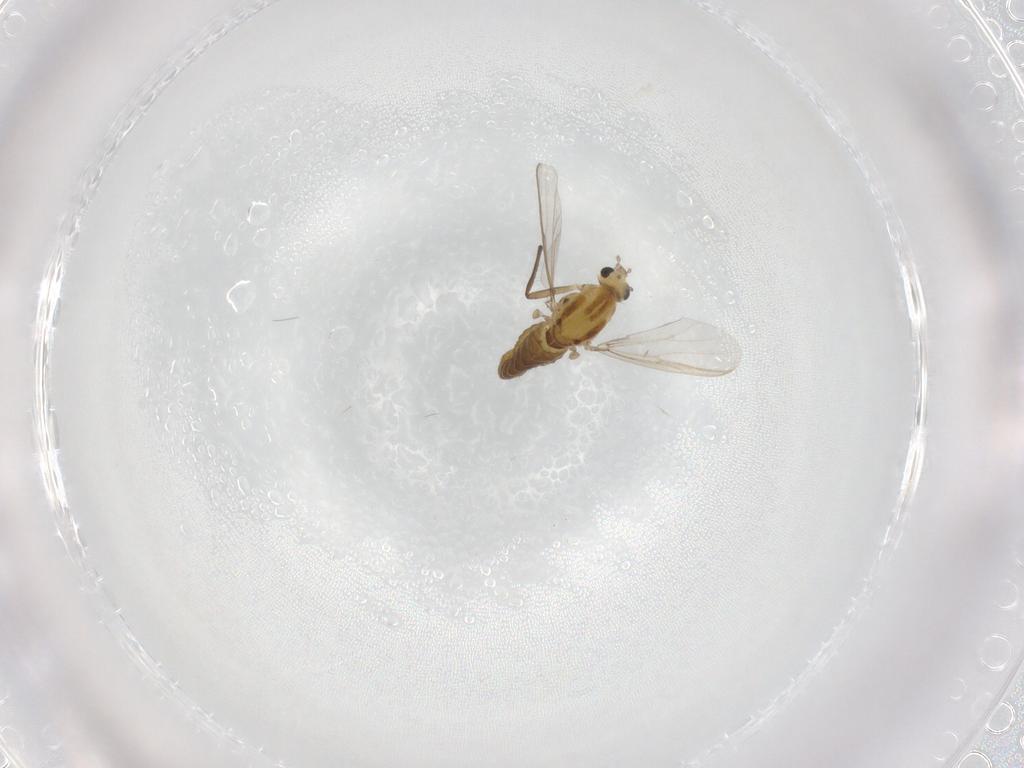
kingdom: Animalia
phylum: Arthropoda
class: Insecta
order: Diptera
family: Chironomidae
